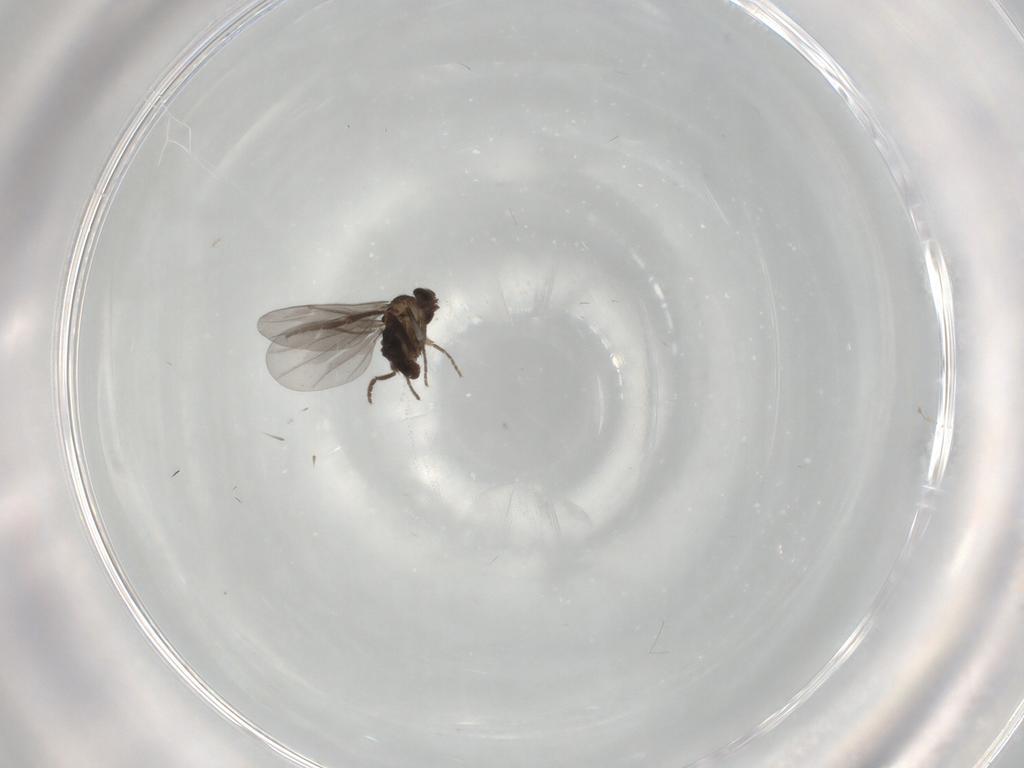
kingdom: Animalia
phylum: Arthropoda
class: Insecta
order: Diptera
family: Phoridae
